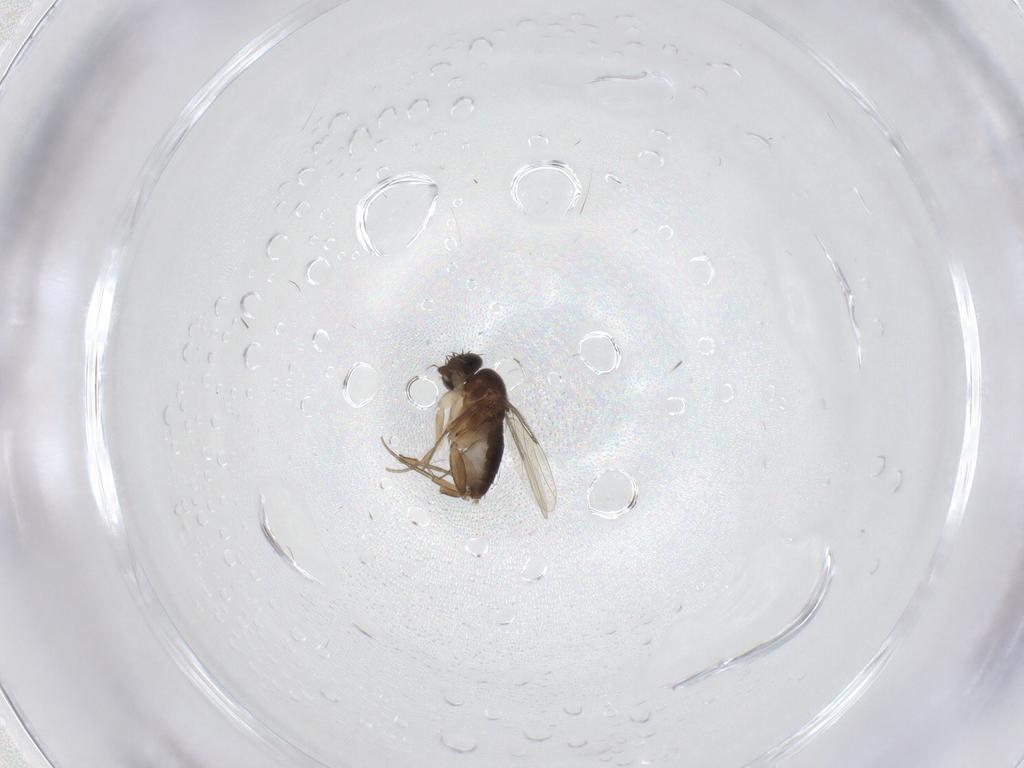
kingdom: Animalia
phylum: Arthropoda
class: Insecta
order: Diptera
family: Phoridae
